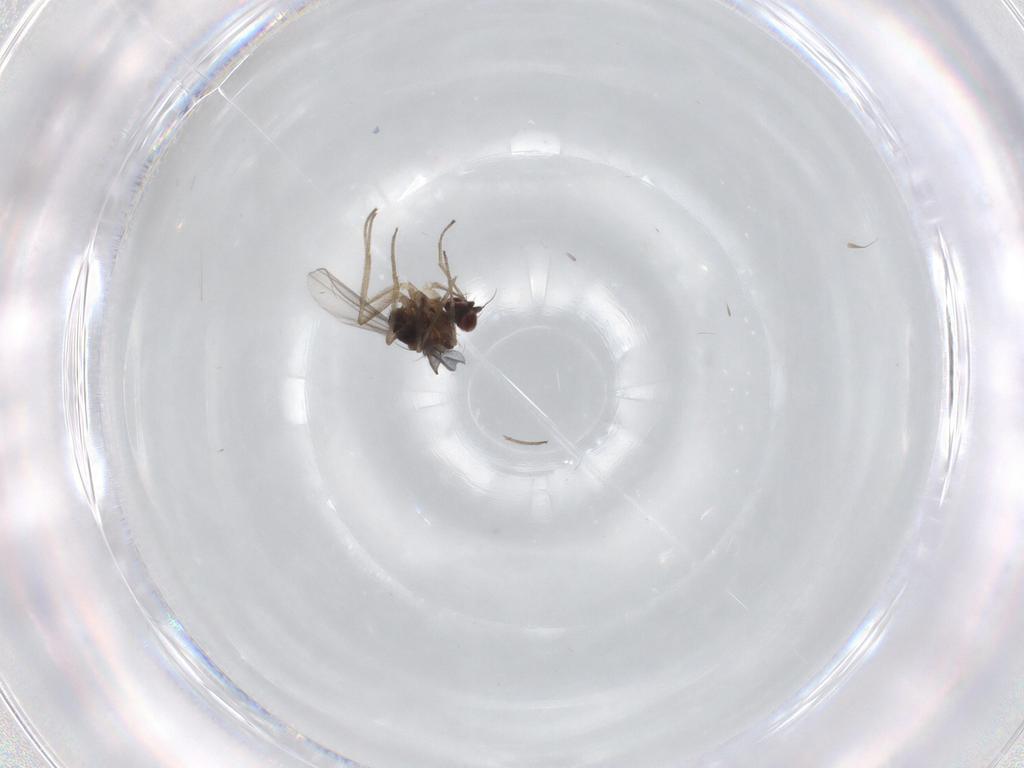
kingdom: Animalia
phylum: Arthropoda
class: Insecta
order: Diptera
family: Dolichopodidae
